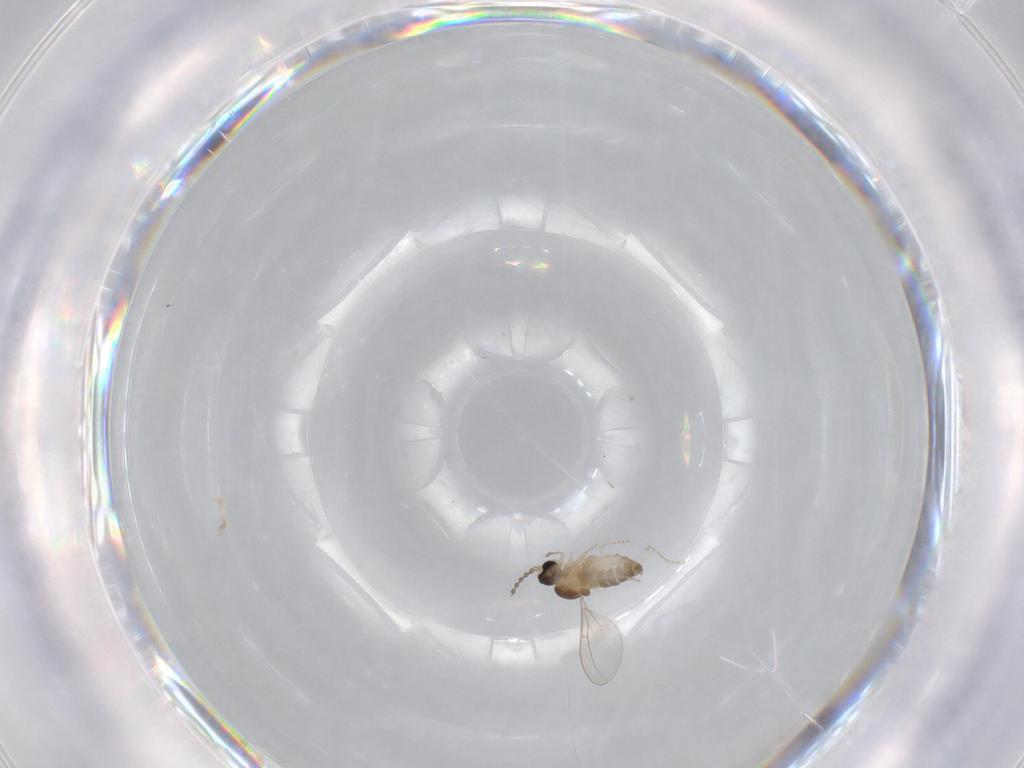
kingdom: Animalia
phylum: Arthropoda
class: Insecta
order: Diptera
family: Cecidomyiidae
